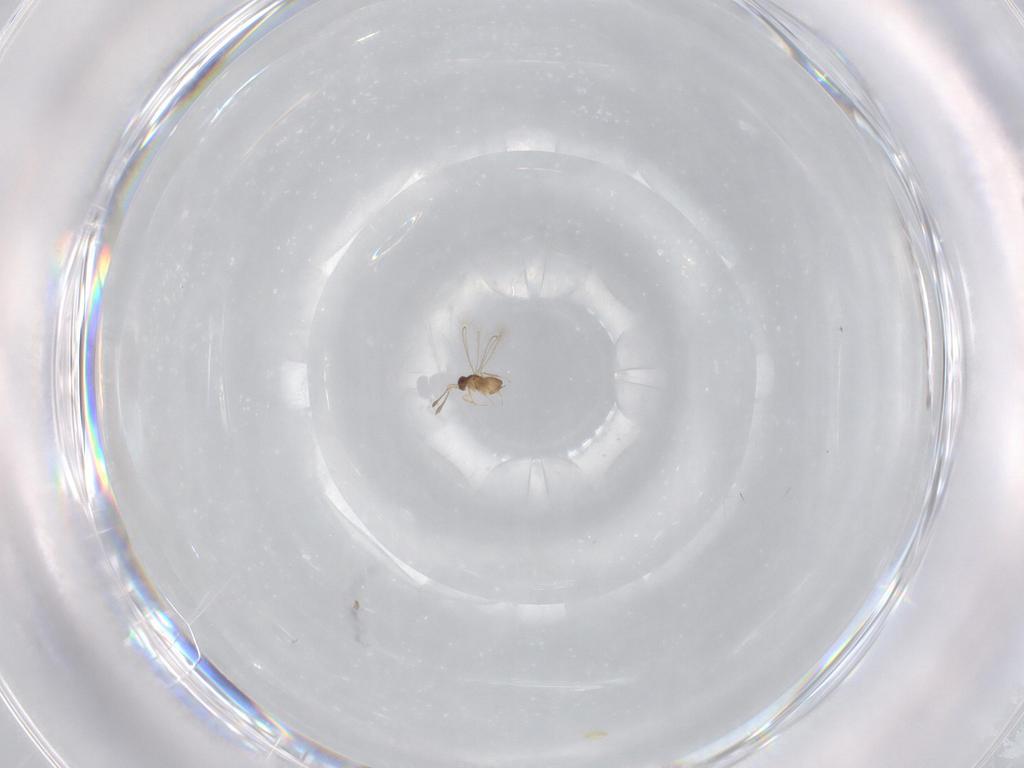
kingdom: Animalia
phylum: Arthropoda
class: Insecta
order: Hymenoptera
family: Mymaridae
